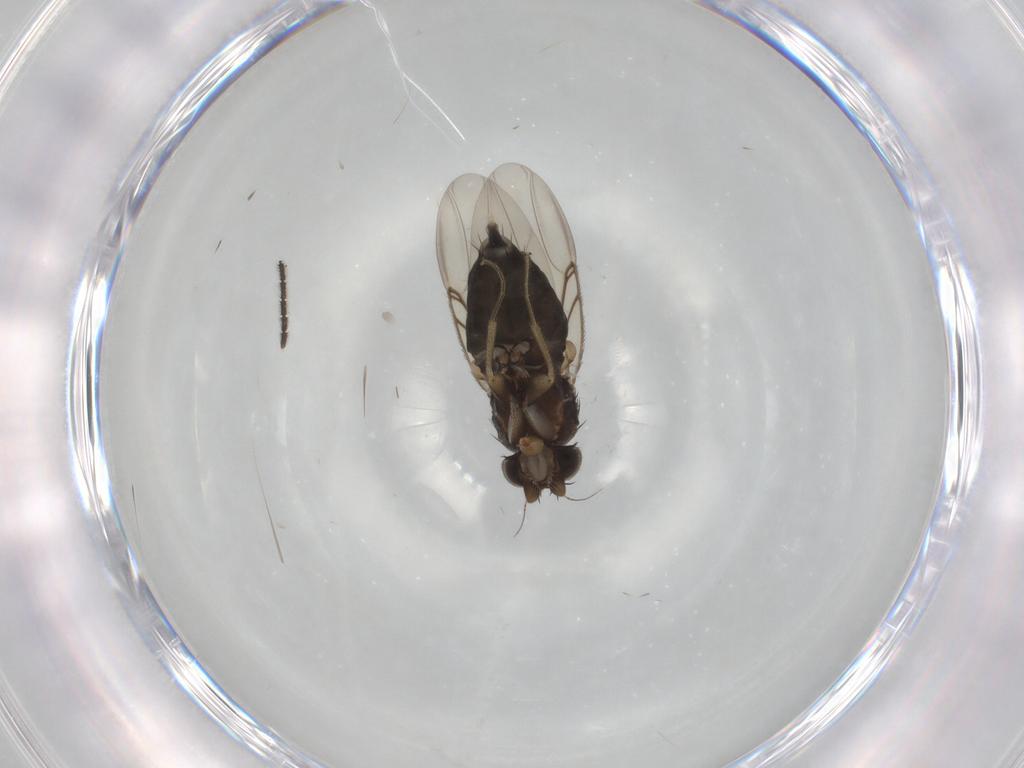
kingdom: Animalia
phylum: Arthropoda
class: Insecta
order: Diptera
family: Phoridae
